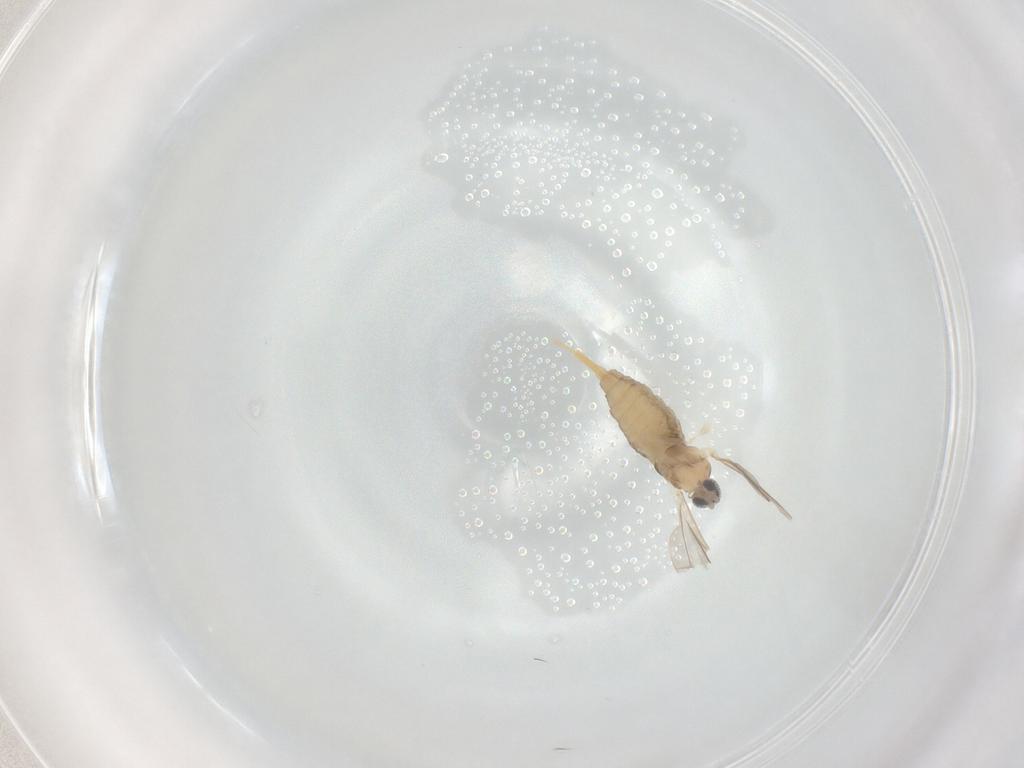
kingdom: Animalia
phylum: Arthropoda
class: Insecta
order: Diptera
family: Cecidomyiidae
